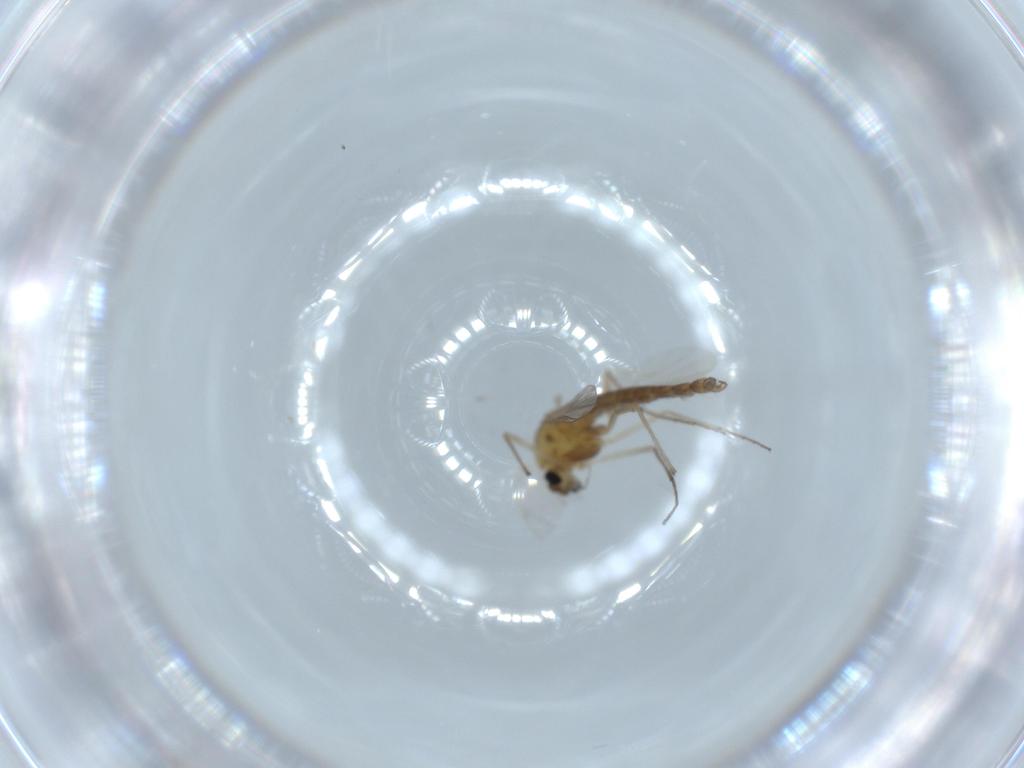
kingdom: Animalia
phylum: Arthropoda
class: Insecta
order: Diptera
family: Chironomidae
